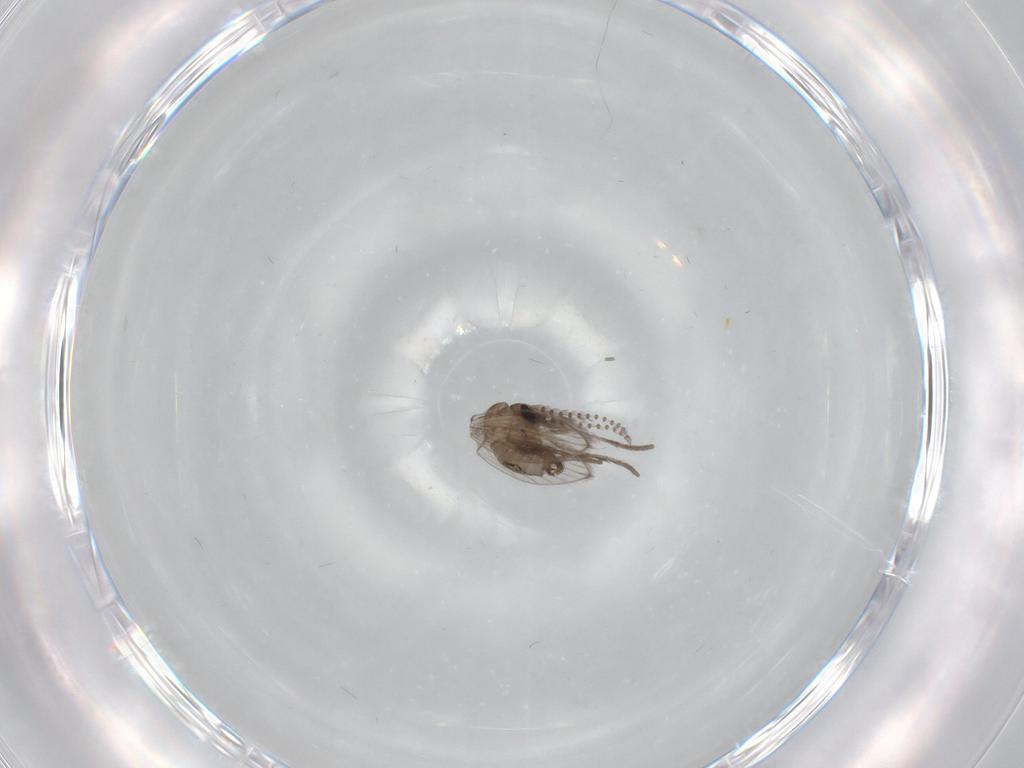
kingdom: Animalia
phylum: Arthropoda
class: Insecta
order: Diptera
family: Psychodidae
